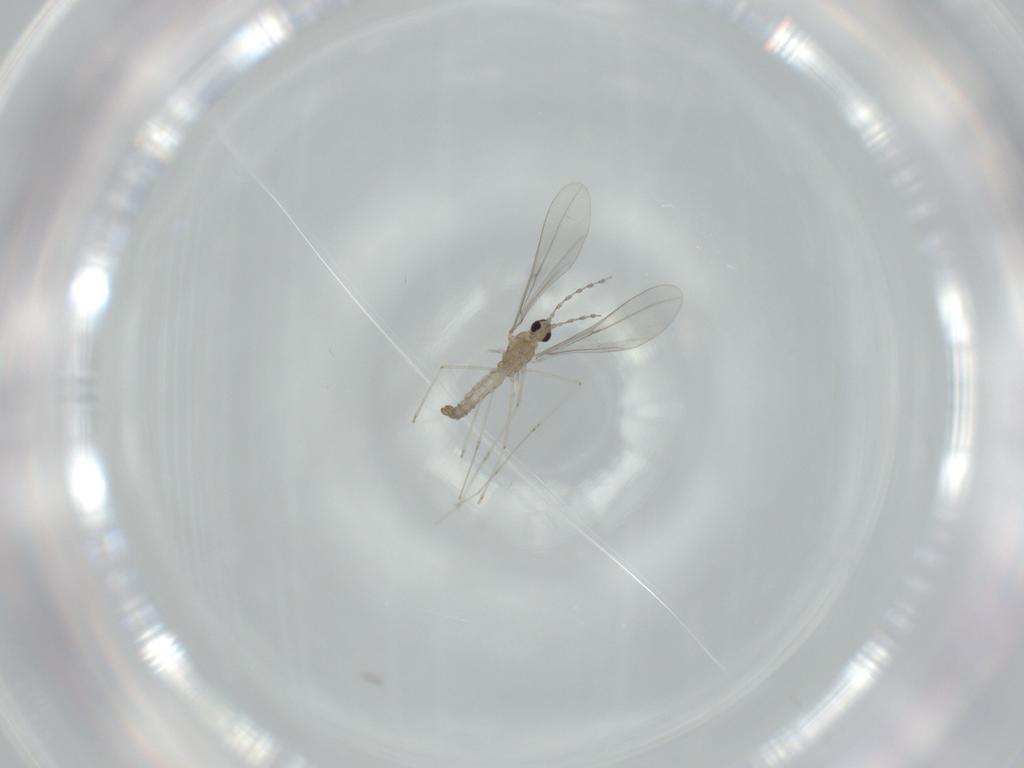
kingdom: Animalia
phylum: Arthropoda
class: Insecta
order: Diptera
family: Cecidomyiidae
